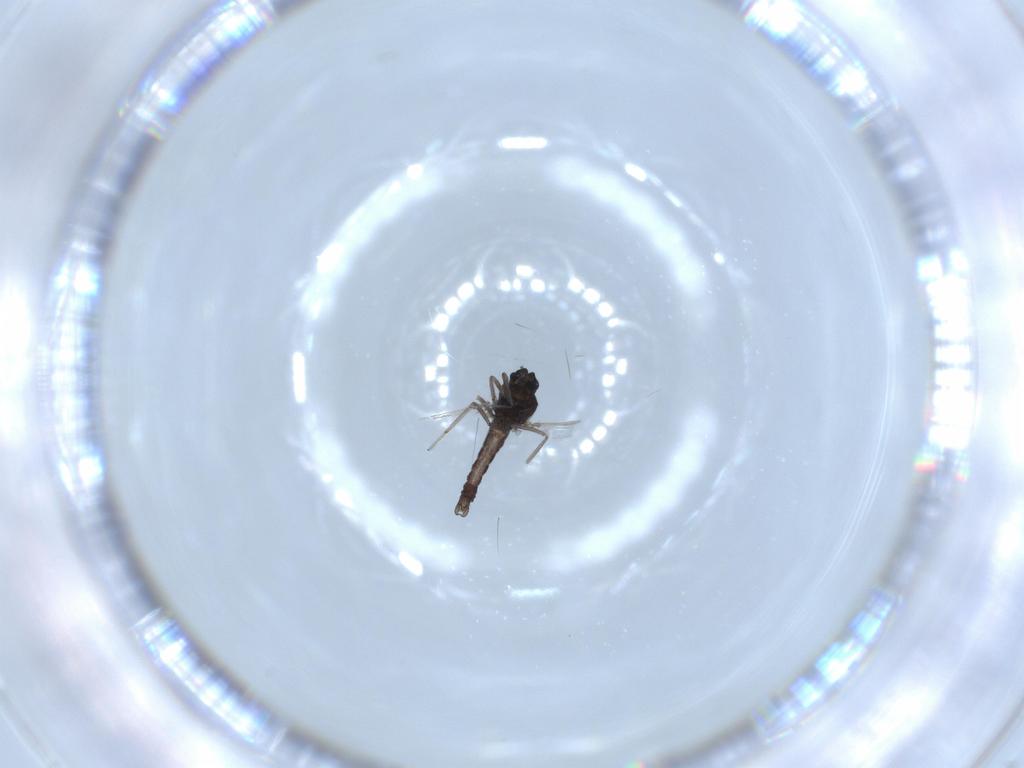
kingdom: Animalia
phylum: Arthropoda
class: Insecta
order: Diptera
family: Ceratopogonidae
